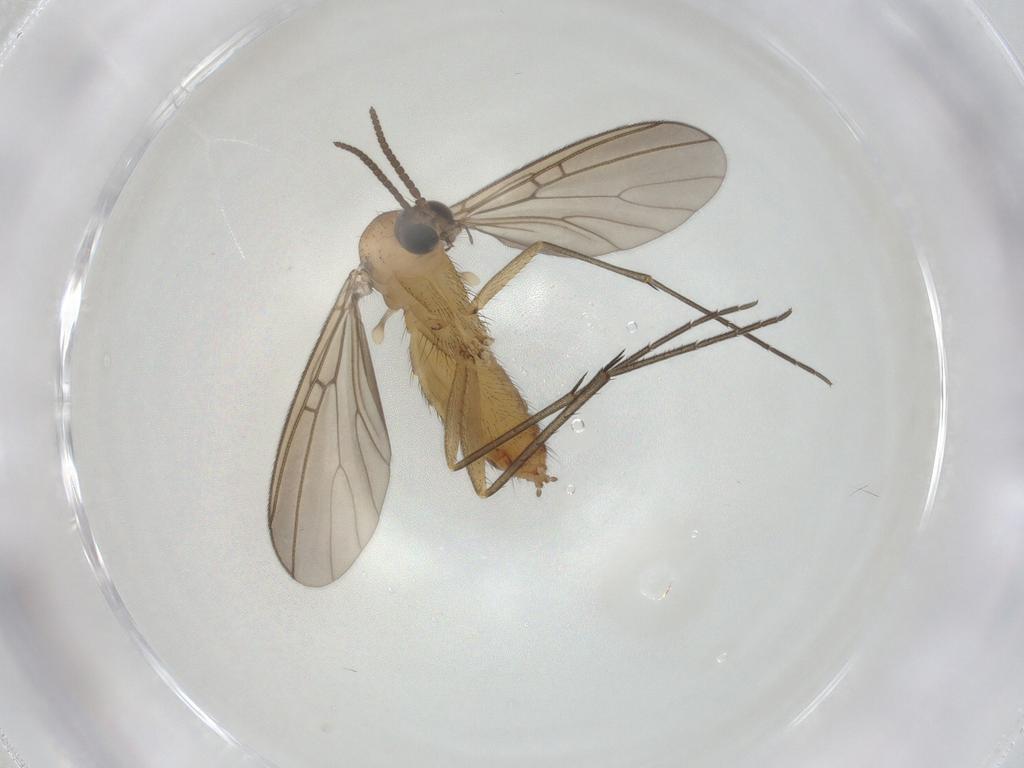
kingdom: Animalia
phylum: Arthropoda
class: Insecta
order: Diptera
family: Mycetophilidae
